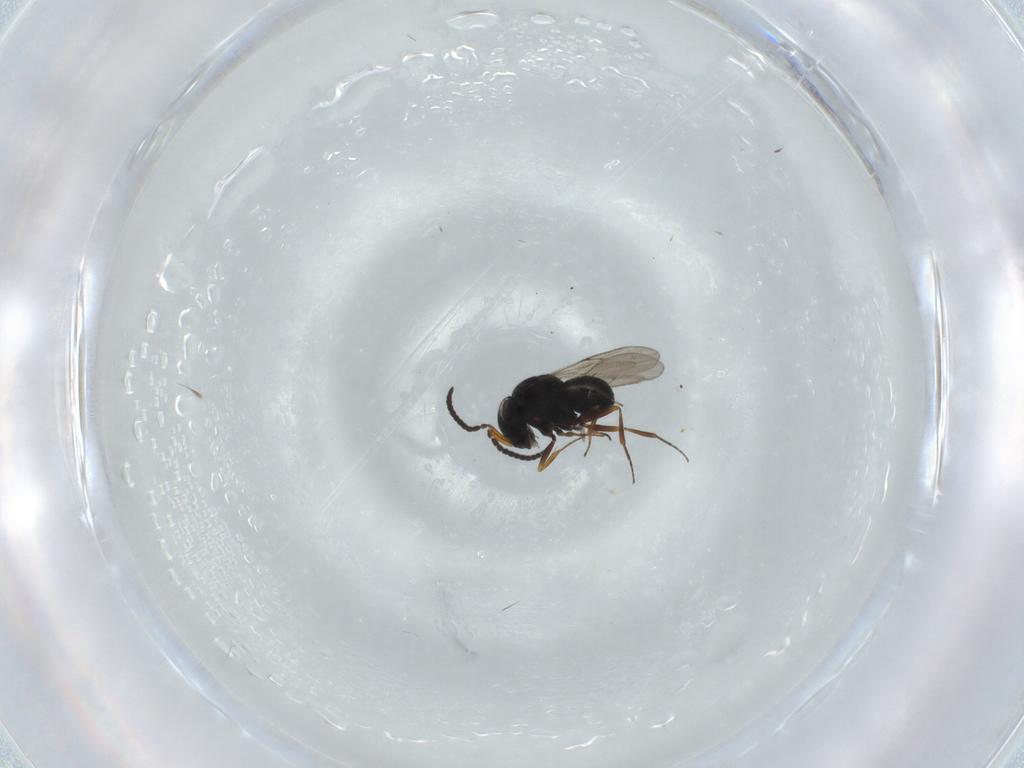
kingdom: Animalia
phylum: Arthropoda
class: Insecta
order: Hymenoptera
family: Scelionidae
